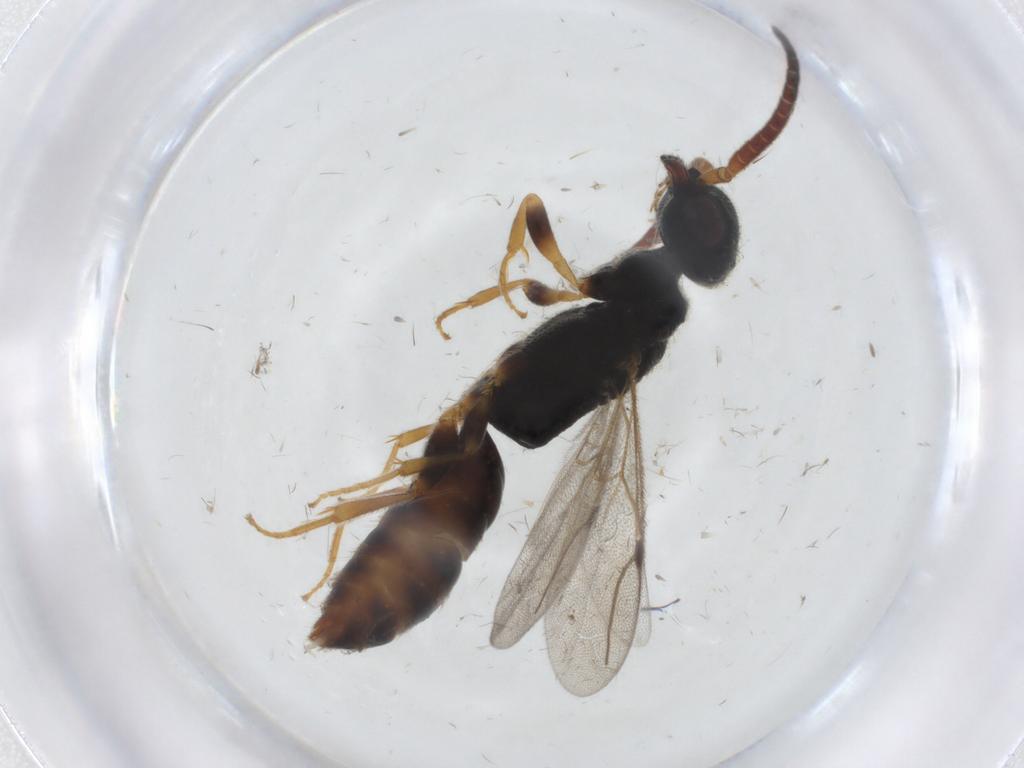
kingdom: Animalia
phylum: Arthropoda
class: Insecta
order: Hymenoptera
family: Bethylidae
